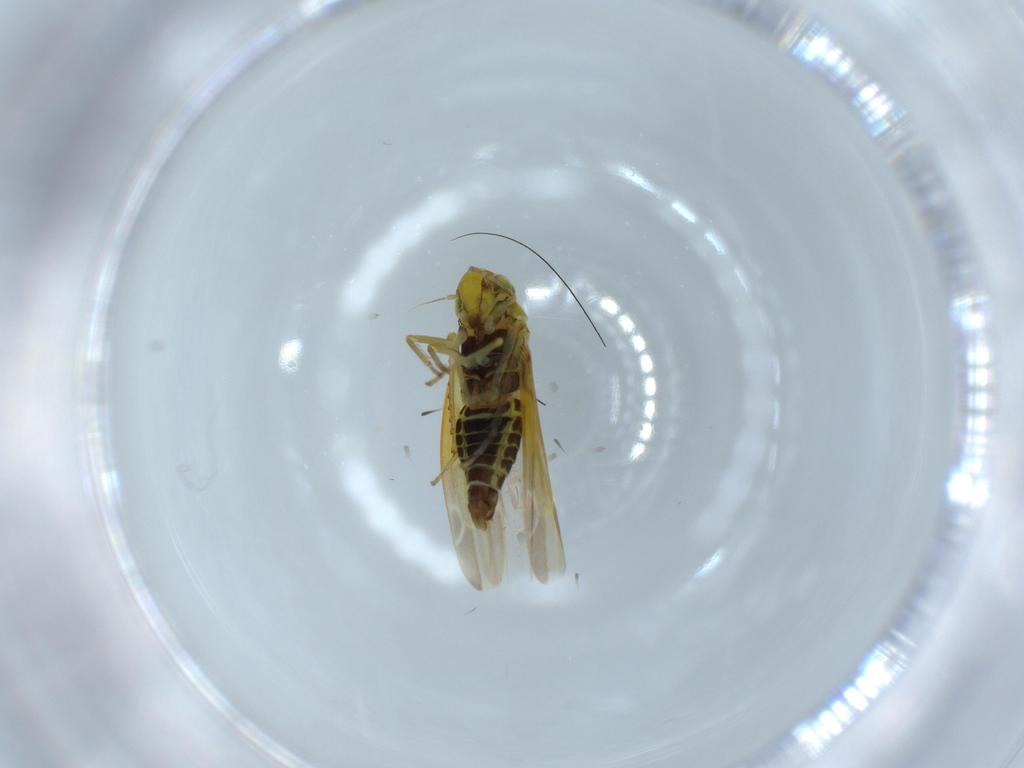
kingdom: Animalia
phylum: Arthropoda
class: Insecta
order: Hemiptera
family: Cicadellidae
